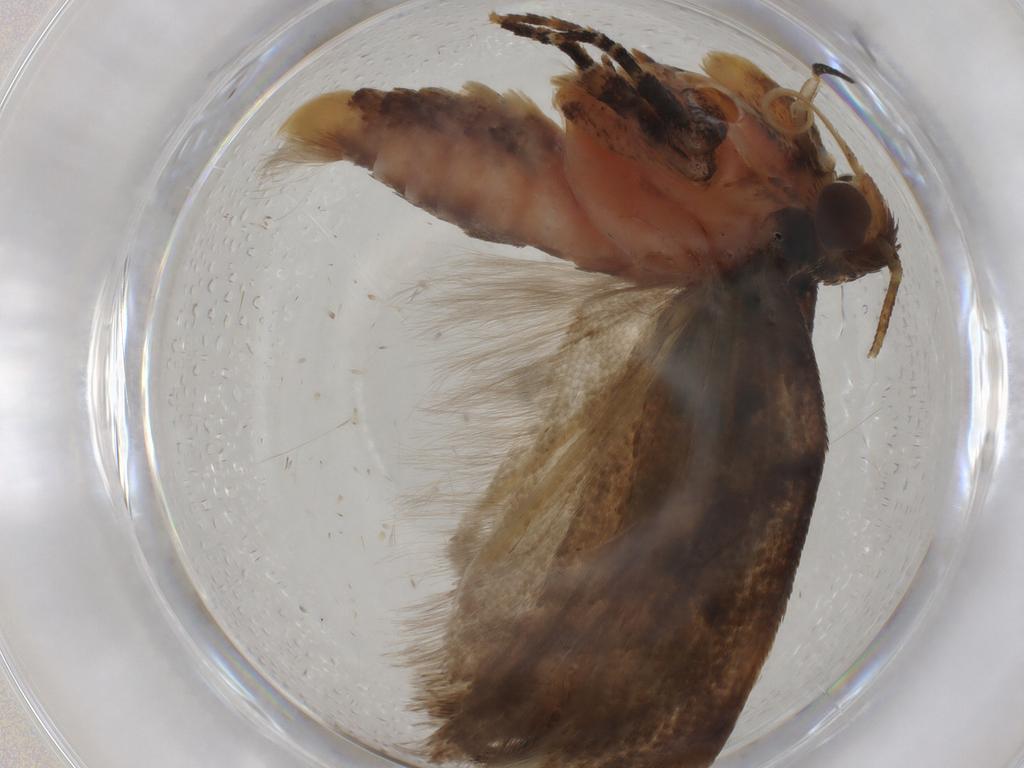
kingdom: Animalia
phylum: Arthropoda
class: Insecta
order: Lepidoptera
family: Gelechiidae
